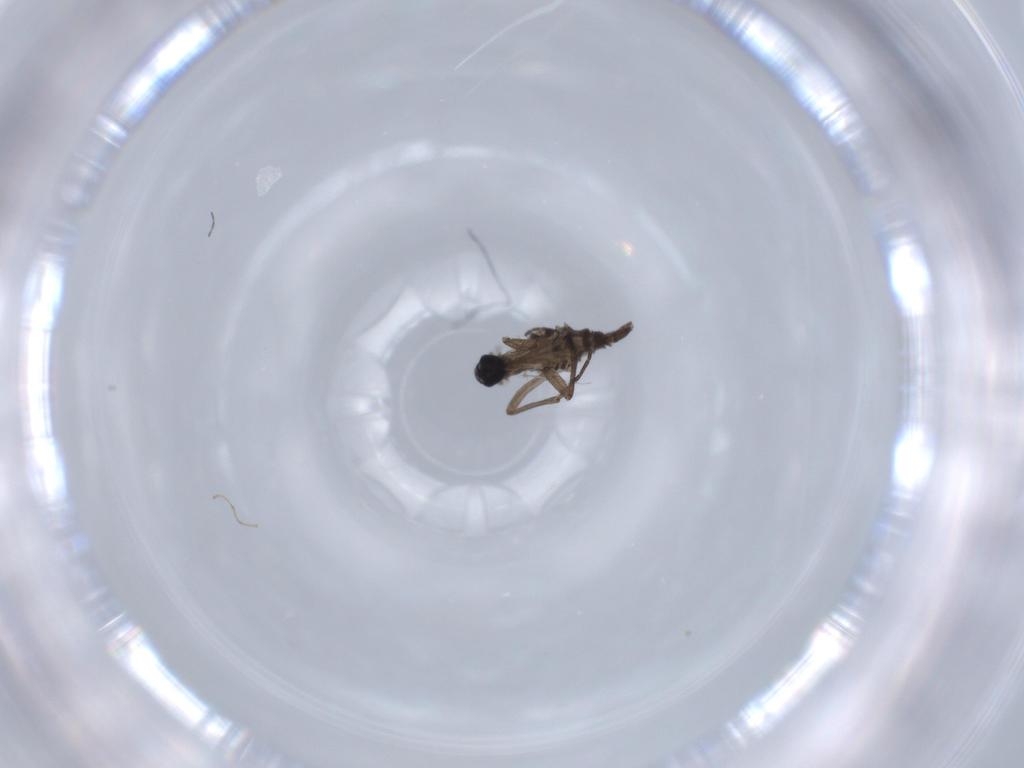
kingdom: Animalia
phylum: Arthropoda
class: Insecta
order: Diptera
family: Sciaridae
